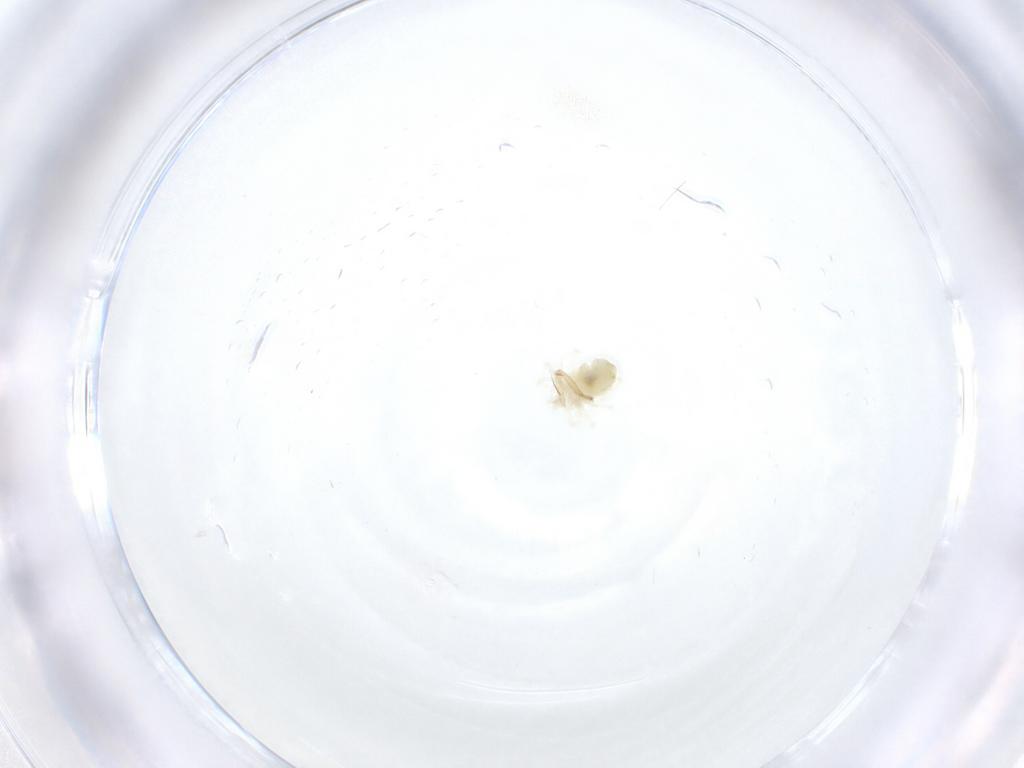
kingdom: Animalia
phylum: Arthropoda
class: Arachnida
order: Trombidiformes
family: Anystidae
